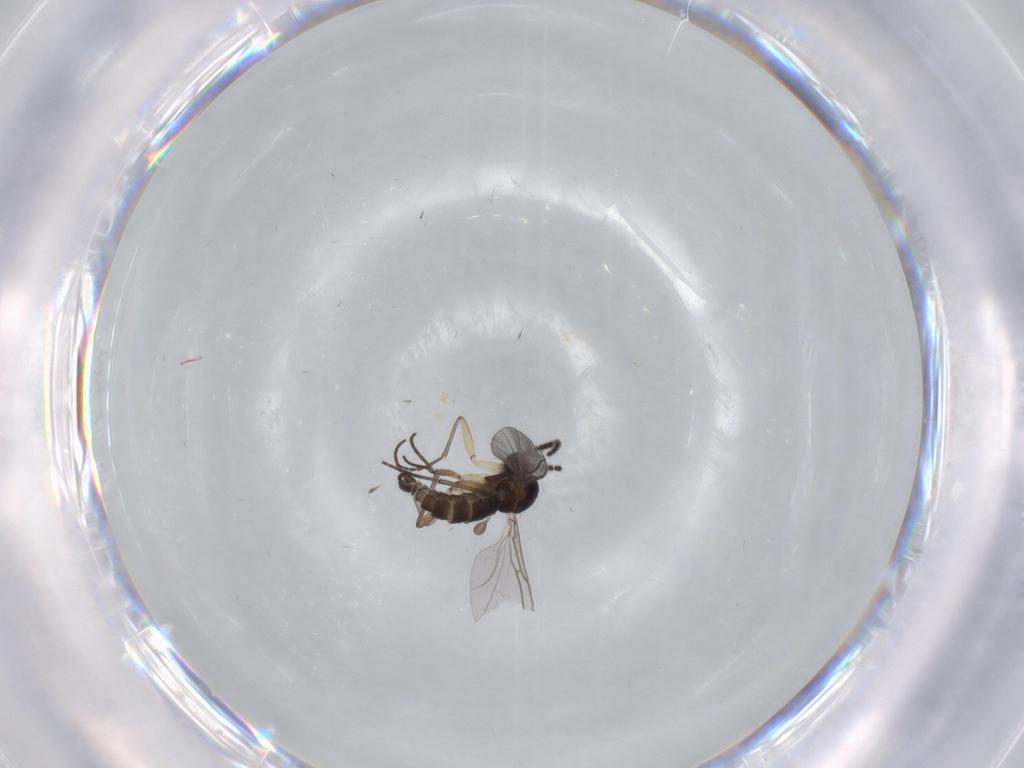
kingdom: Animalia
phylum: Arthropoda
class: Insecta
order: Diptera
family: Sciaridae
